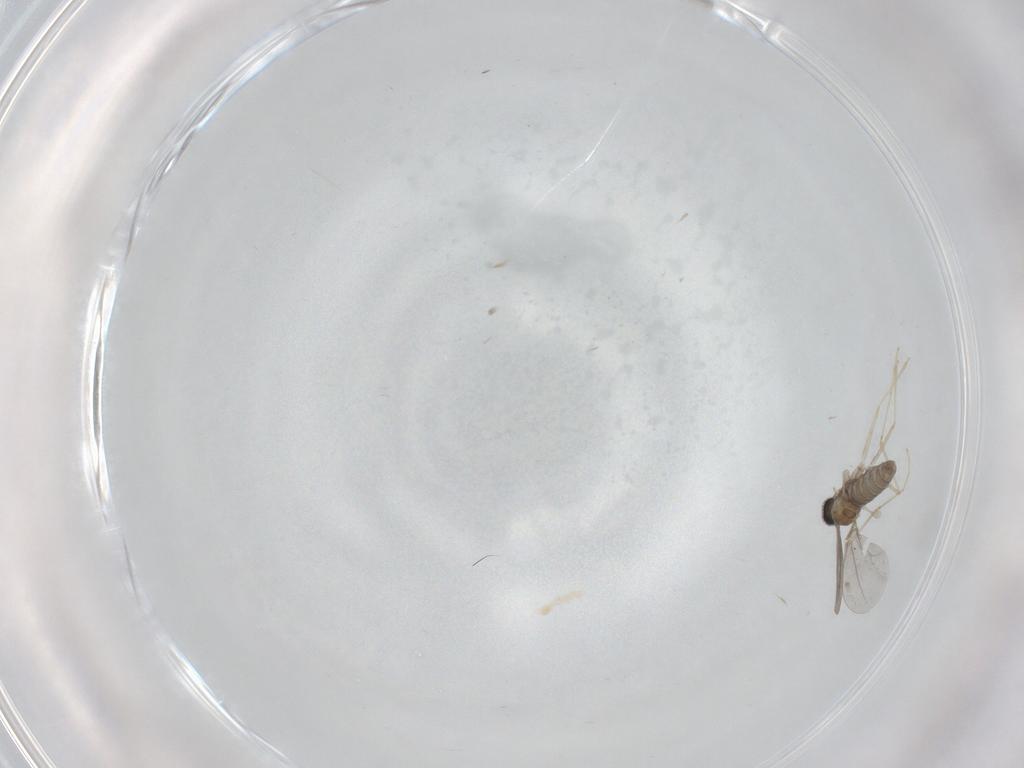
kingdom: Animalia
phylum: Arthropoda
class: Insecta
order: Diptera
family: Cecidomyiidae
